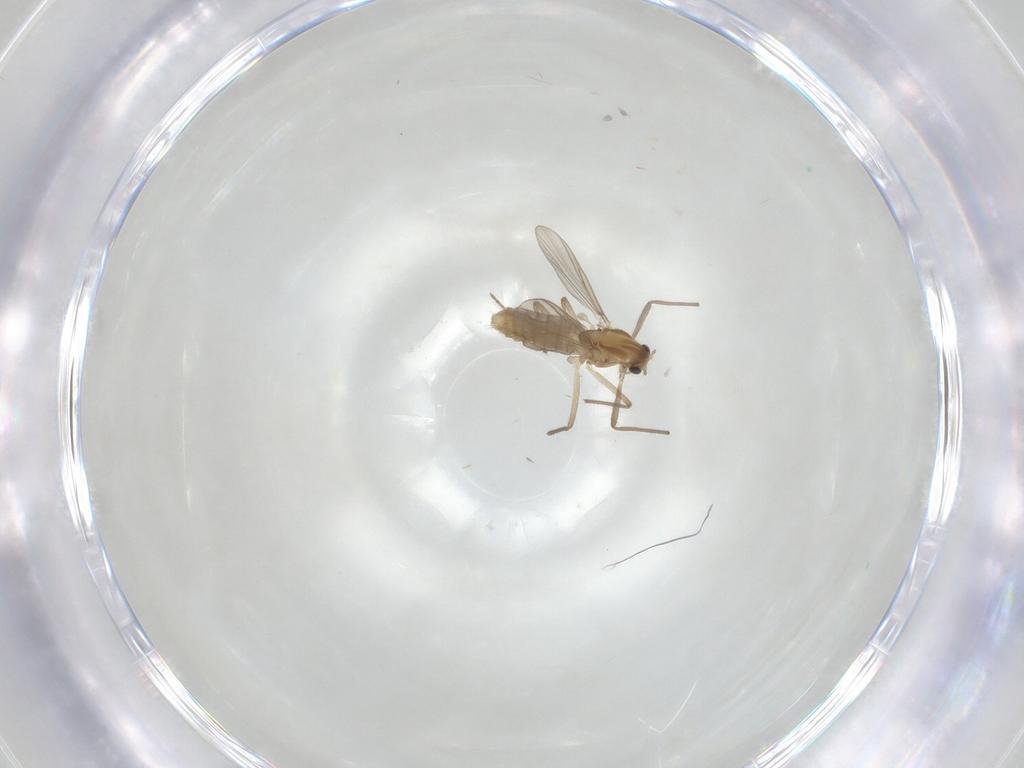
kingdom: Animalia
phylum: Arthropoda
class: Insecta
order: Diptera
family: Chironomidae
